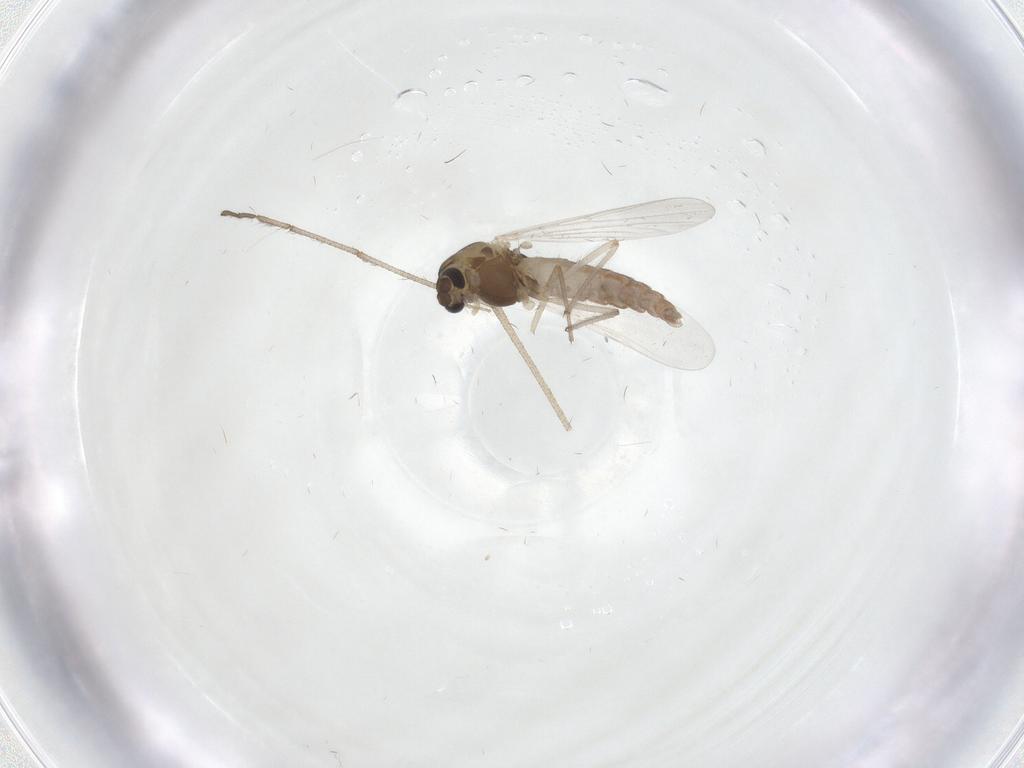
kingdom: Animalia
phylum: Arthropoda
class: Insecta
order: Diptera
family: Chironomidae
